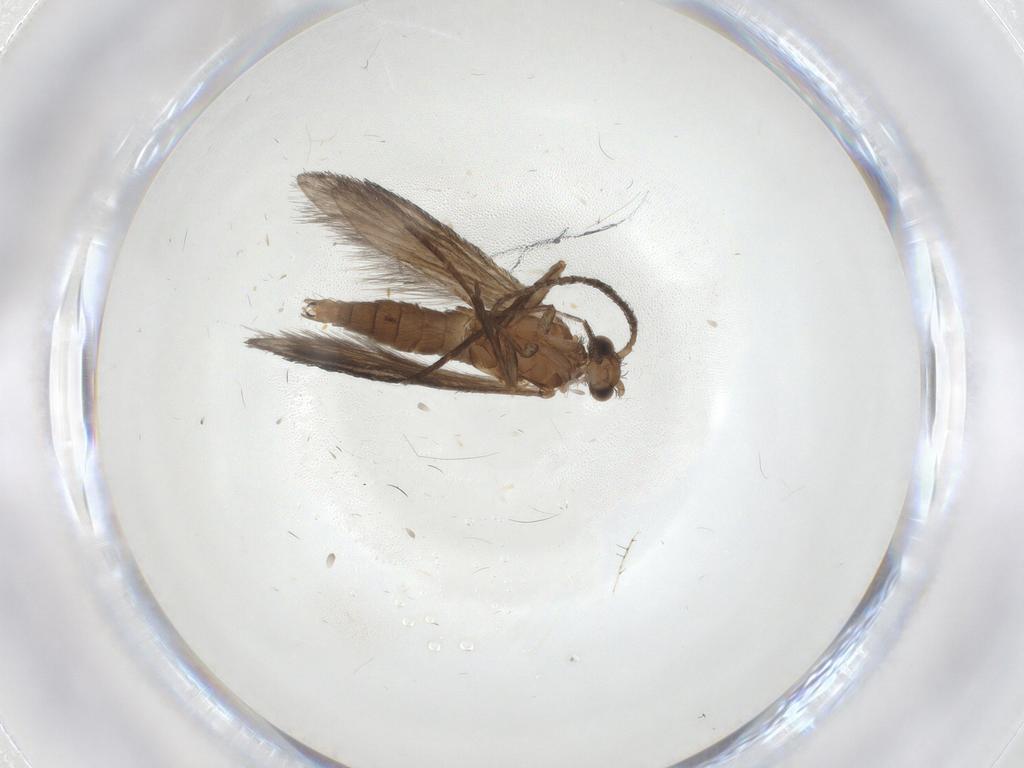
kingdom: Animalia
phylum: Arthropoda
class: Insecta
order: Trichoptera
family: Xiphocentronidae
